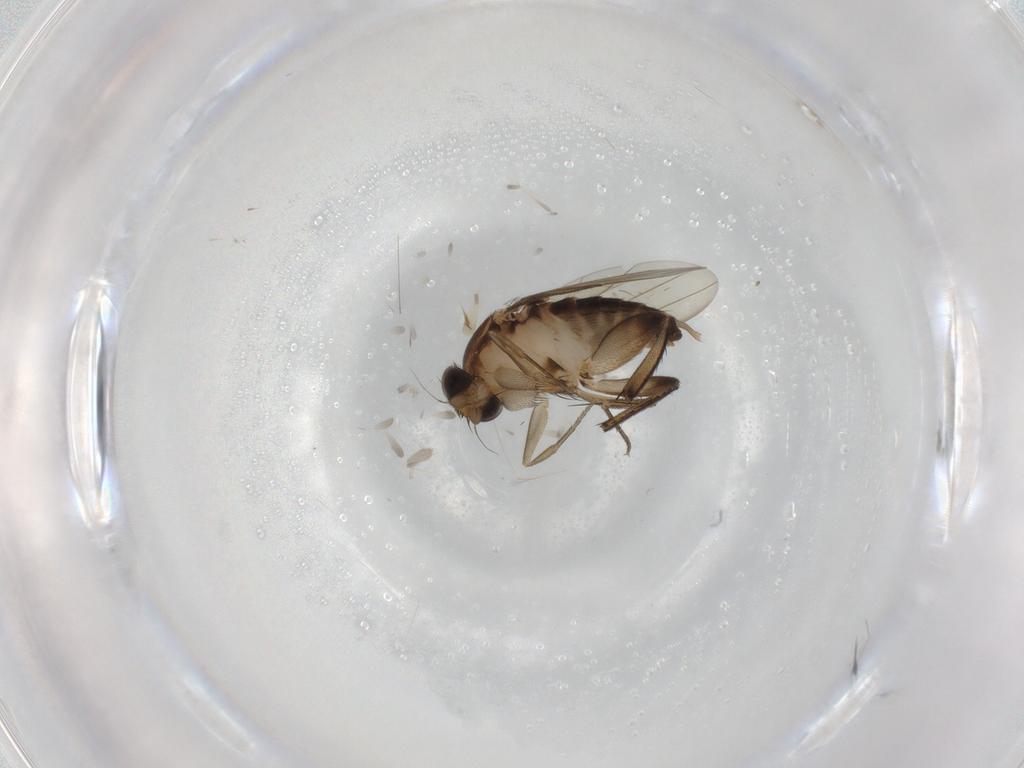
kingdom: Animalia
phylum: Arthropoda
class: Insecta
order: Diptera
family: Phoridae
